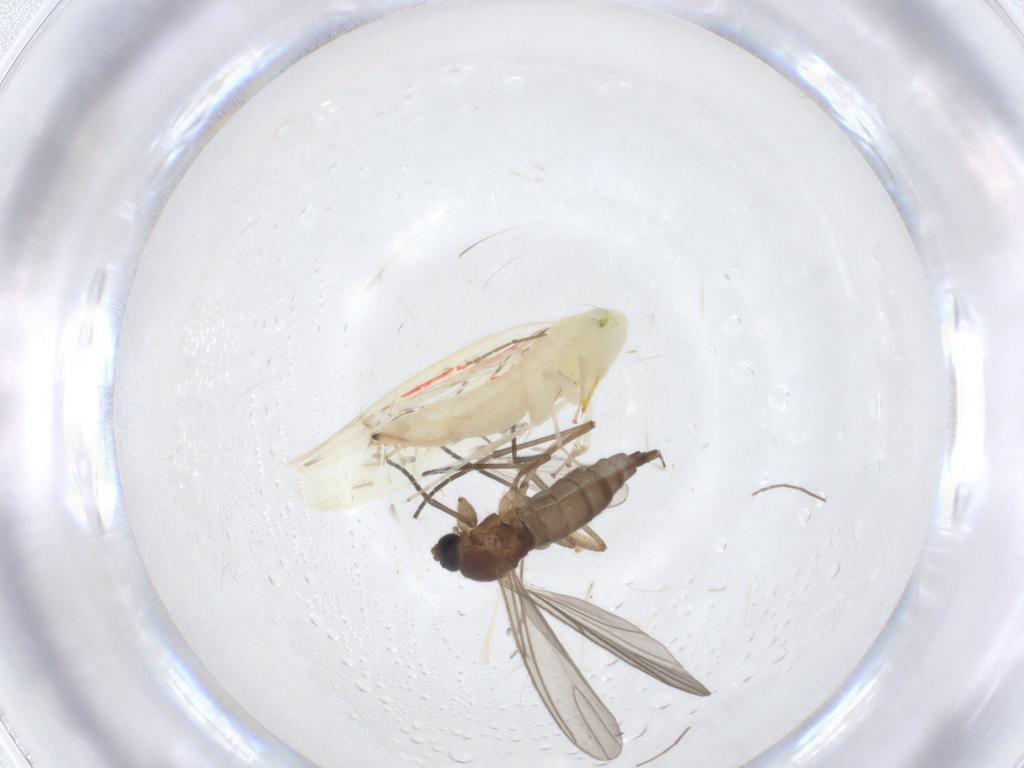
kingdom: Animalia
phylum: Arthropoda
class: Insecta
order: Diptera
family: Sciaridae
